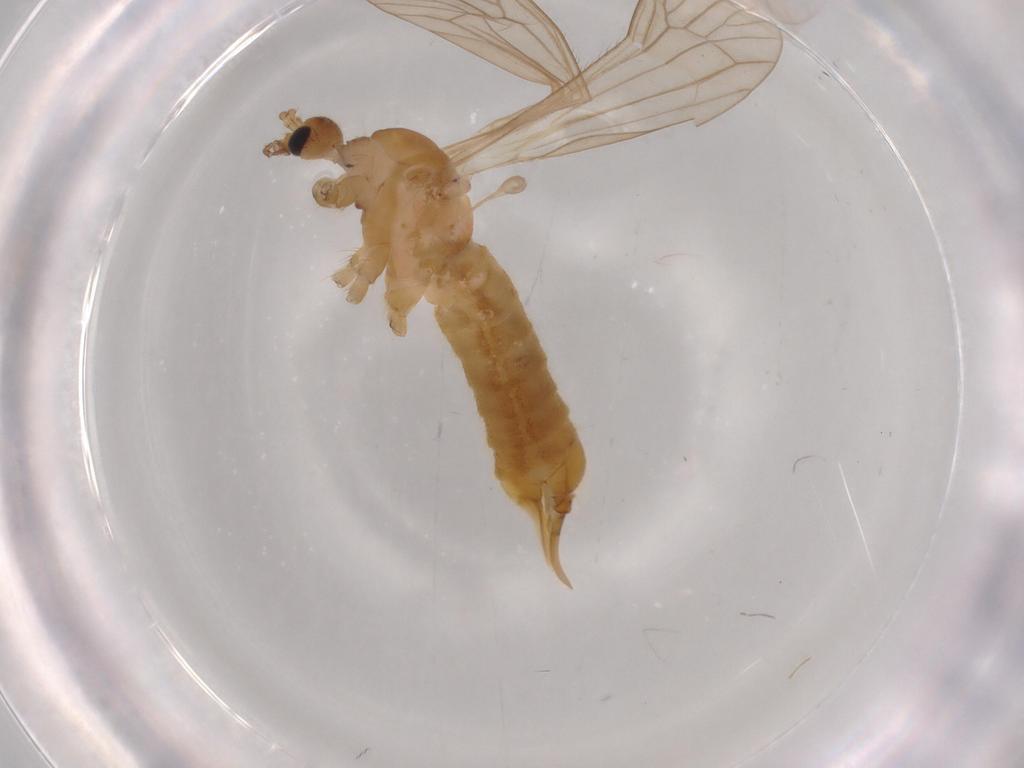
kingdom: Animalia
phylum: Arthropoda
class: Insecta
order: Diptera
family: Limoniidae
